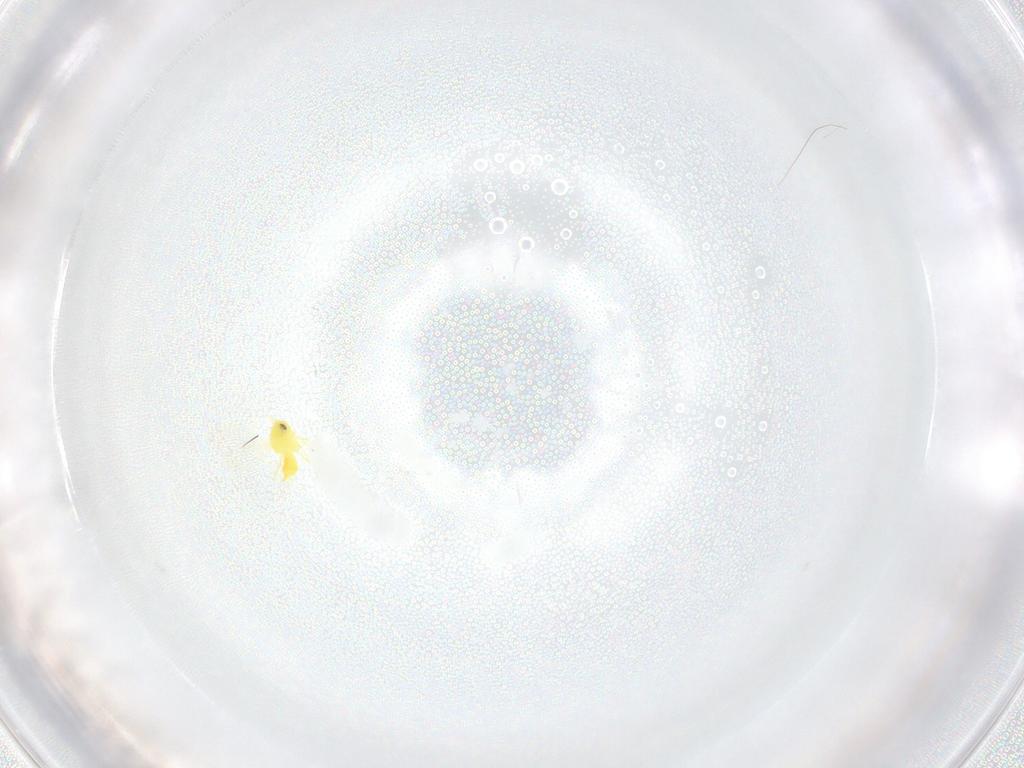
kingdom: Animalia
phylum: Arthropoda
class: Insecta
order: Hemiptera
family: Aleyrodidae
